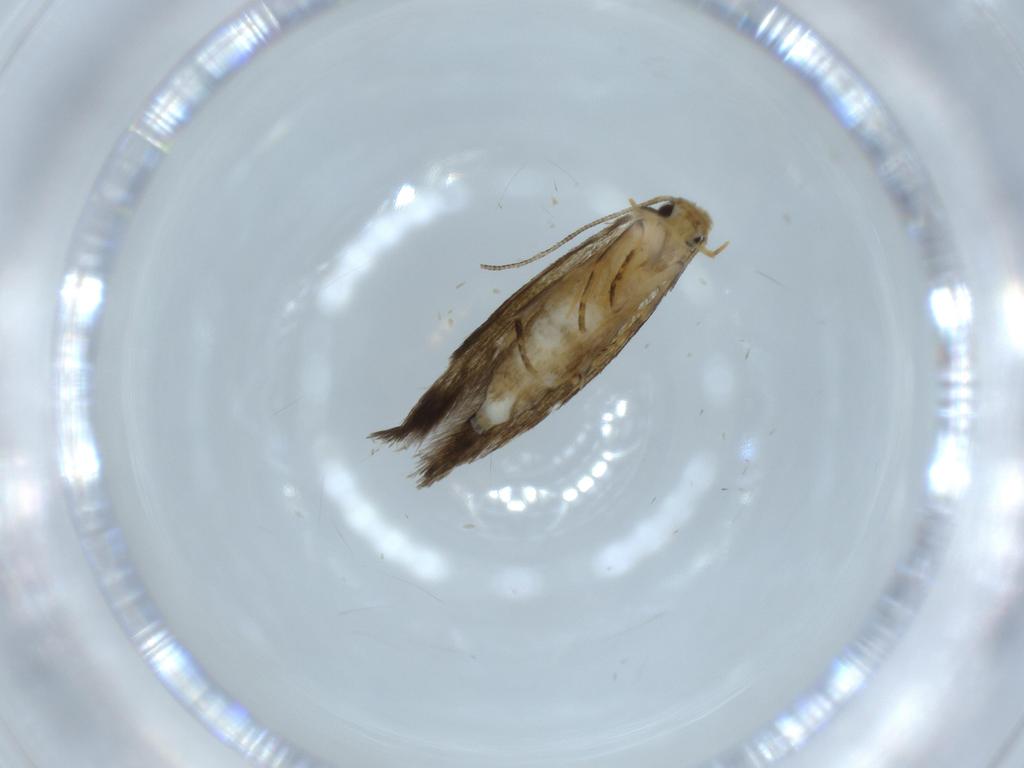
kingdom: Animalia
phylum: Arthropoda
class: Insecta
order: Lepidoptera
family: Tineidae
